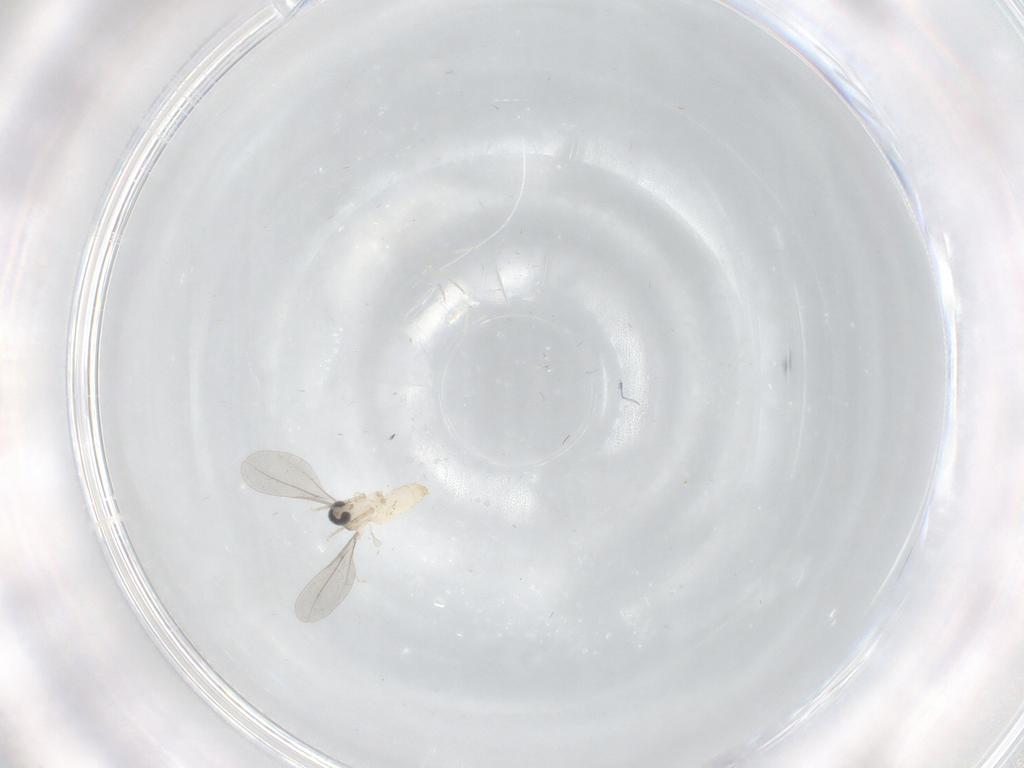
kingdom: Animalia
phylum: Arthropoda
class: Insecta
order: Diptera
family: Sphaeroceridae
